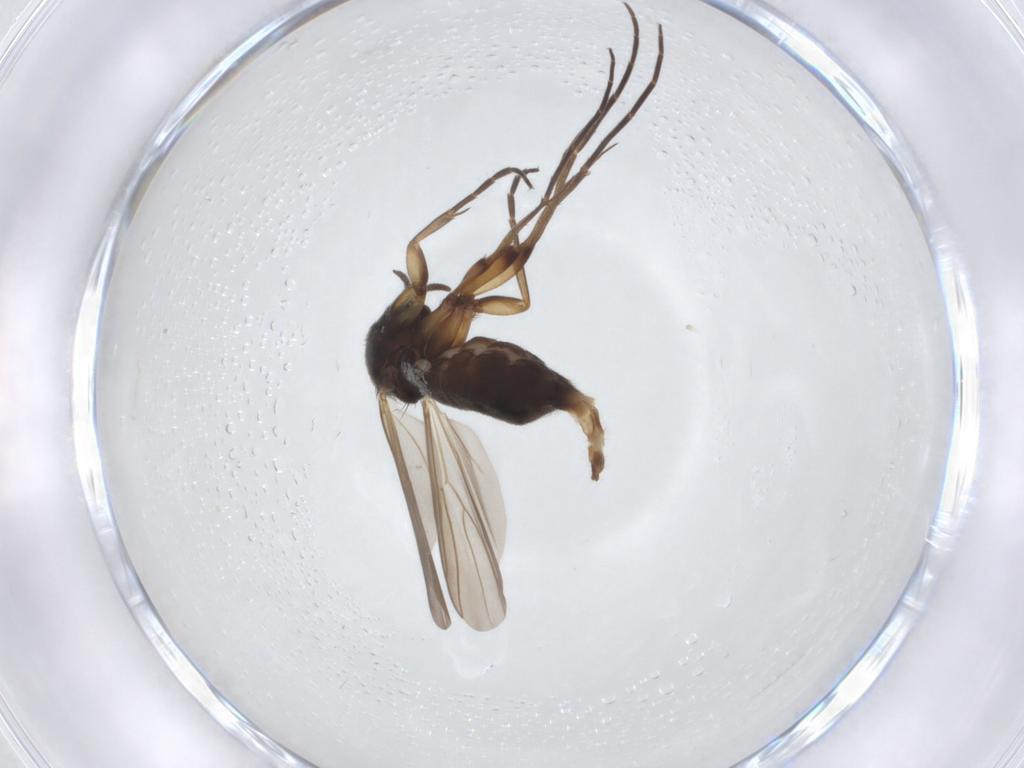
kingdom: Animalia
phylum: Arthropoda
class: Insecta
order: Diptera
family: Mycetophilidae
